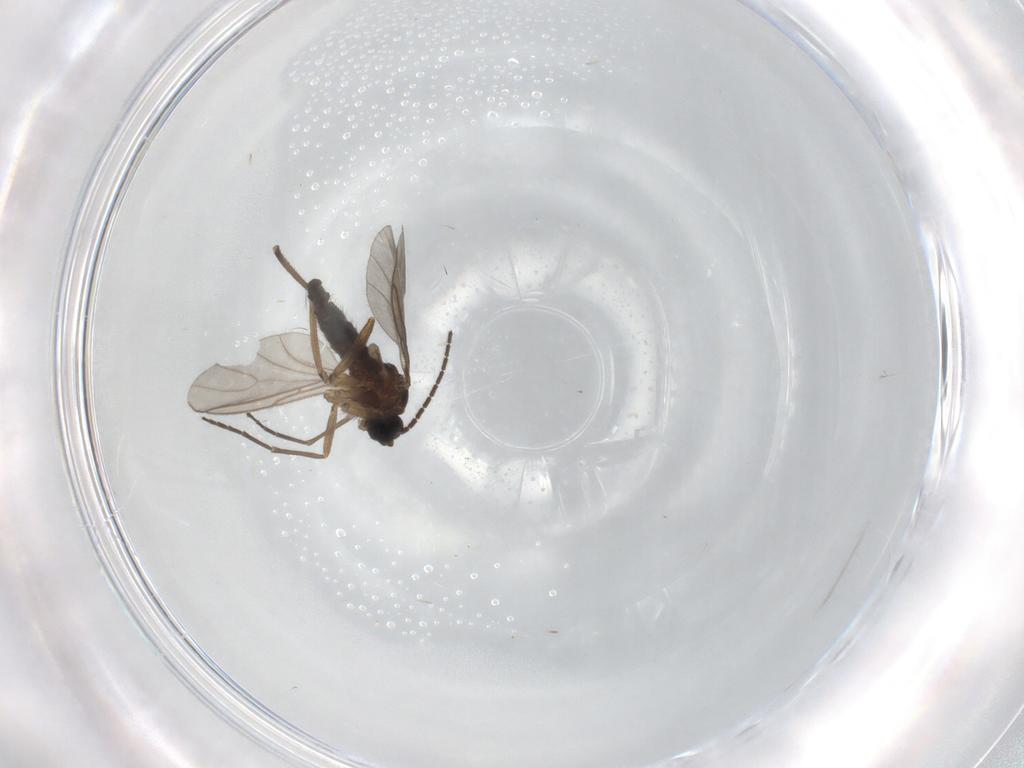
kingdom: Animalia
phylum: Arthropoda
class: Insecta
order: Diptera
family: Sciaridae
